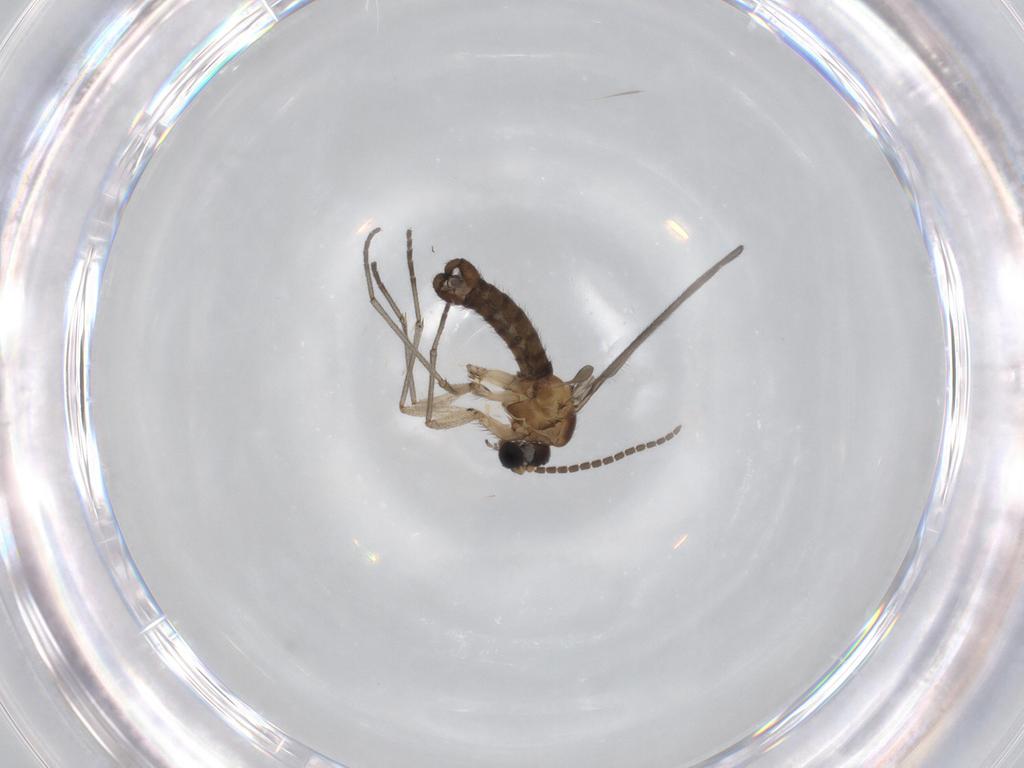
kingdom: Animalia
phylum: Arthropoda
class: Insecta
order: Diptera
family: Sciaridae
